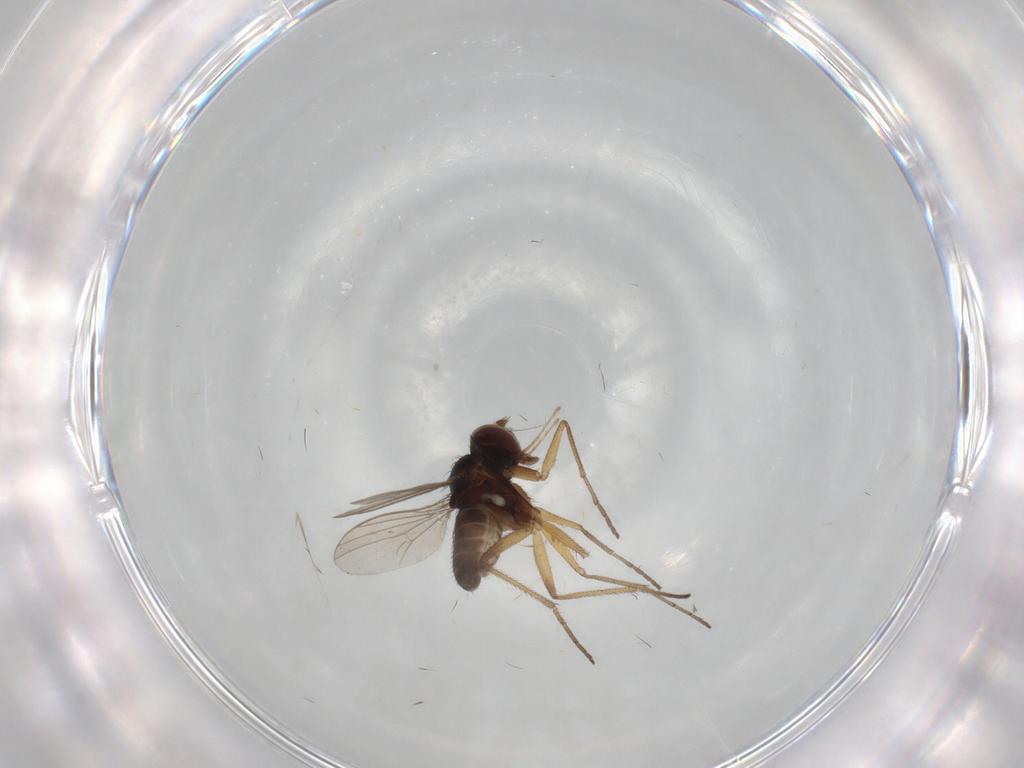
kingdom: Animalia
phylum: Arthropoda
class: Insecta
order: Diptera
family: Dolichopodidae
